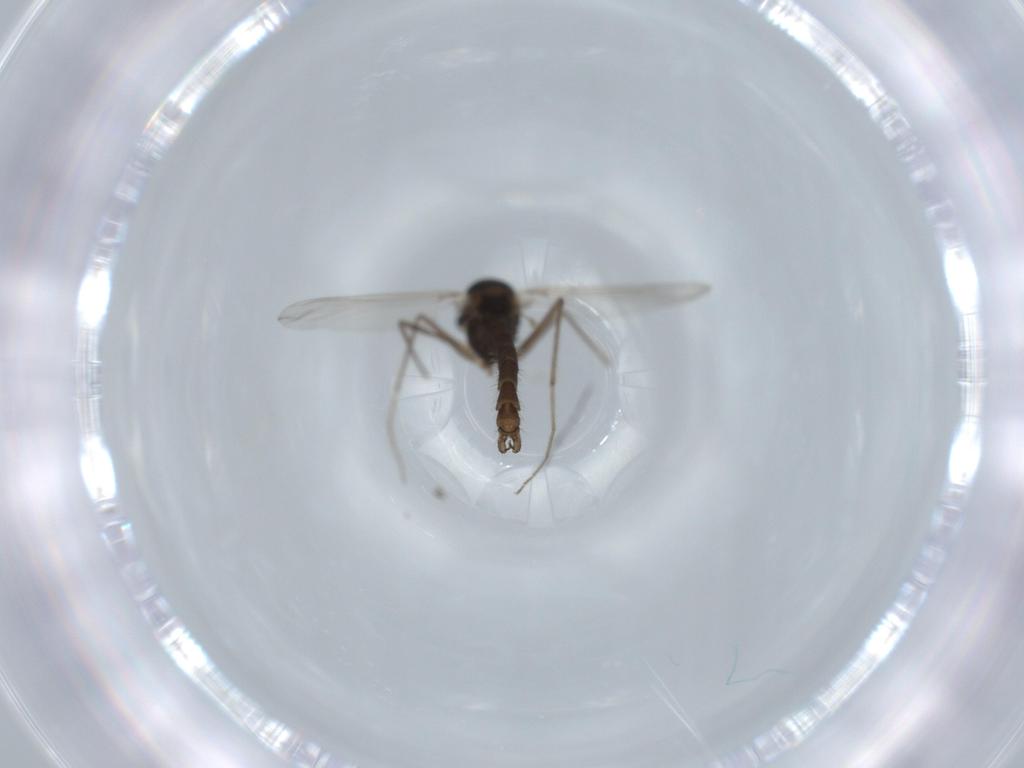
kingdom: Animalia
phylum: Arthropoda
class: Insecta
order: Diptera
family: Chironomidae
